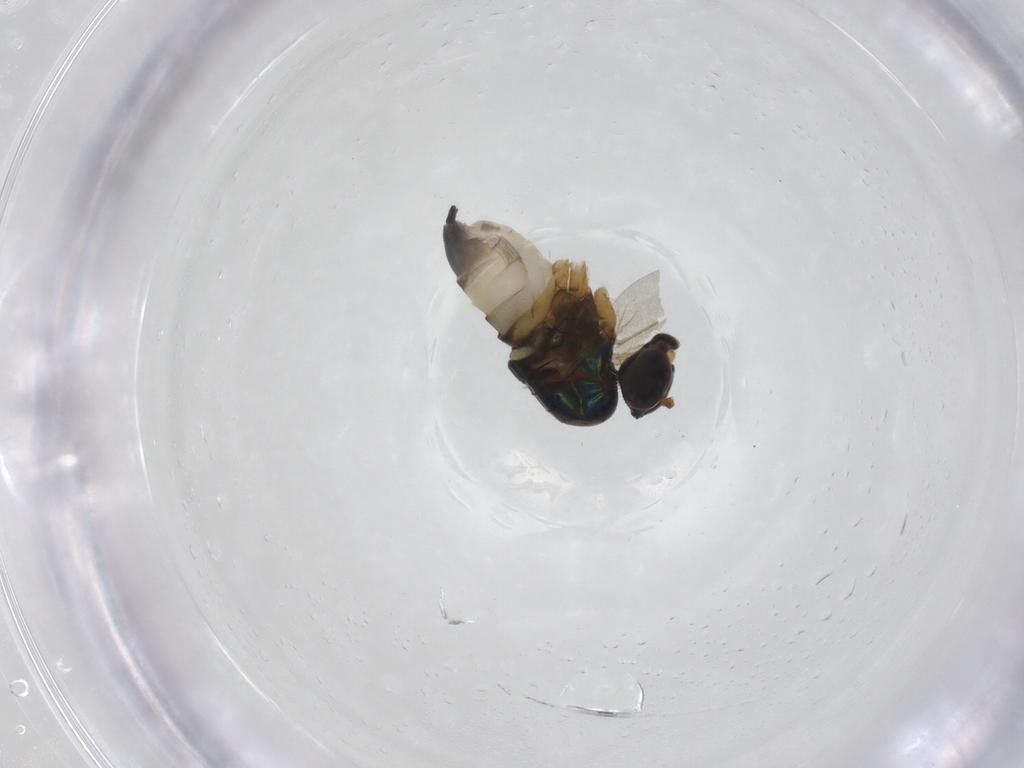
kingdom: Animalia
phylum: Arthropoda
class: Insecta
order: Diptera
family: Dolichopodidae
